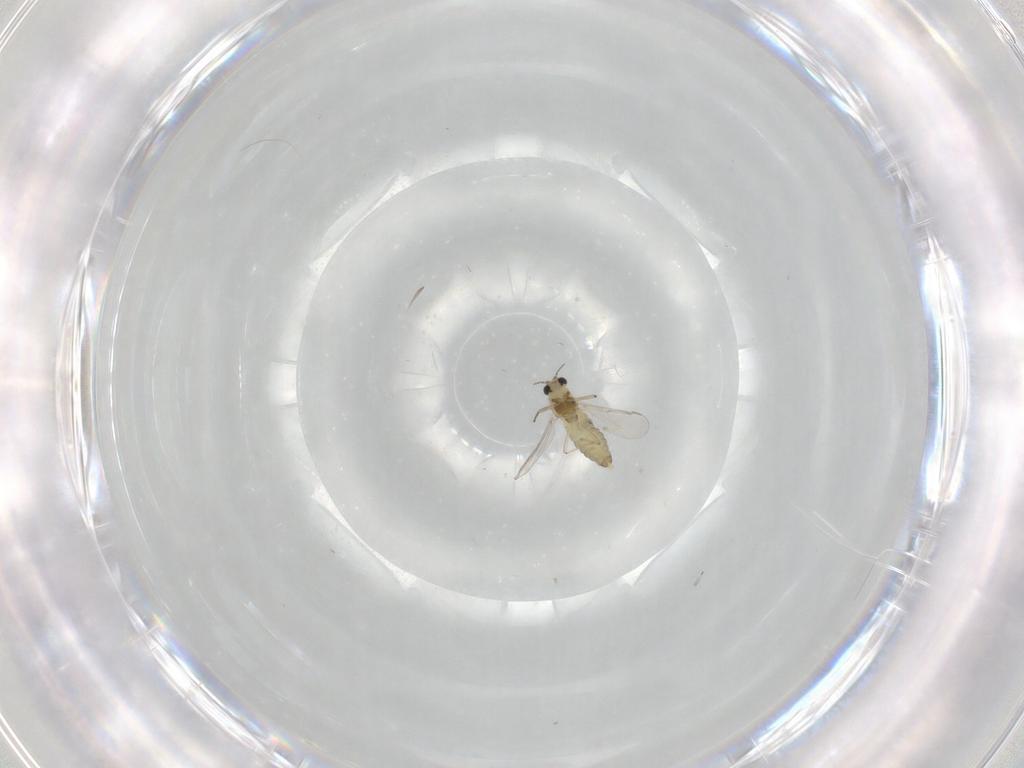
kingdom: Animalia
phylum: Arthropoda
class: Insecta
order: Diptera
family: Chironomidae
